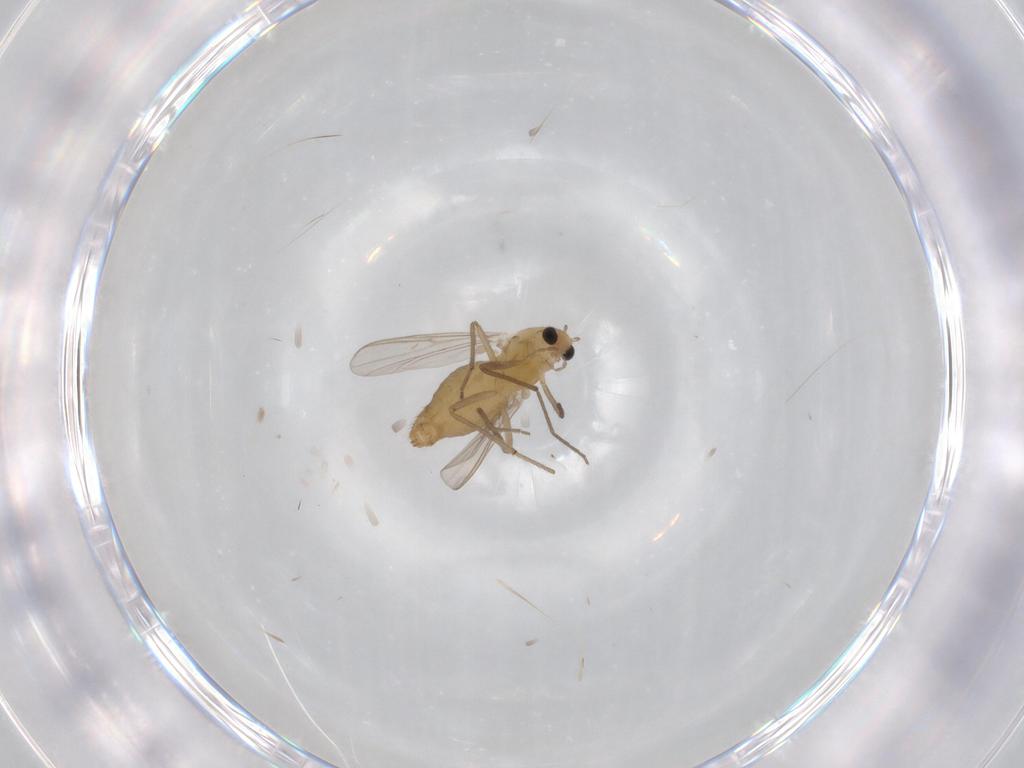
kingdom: Animalia
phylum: Arthropoda
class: Insecta
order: Diptera
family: Chironomidae
